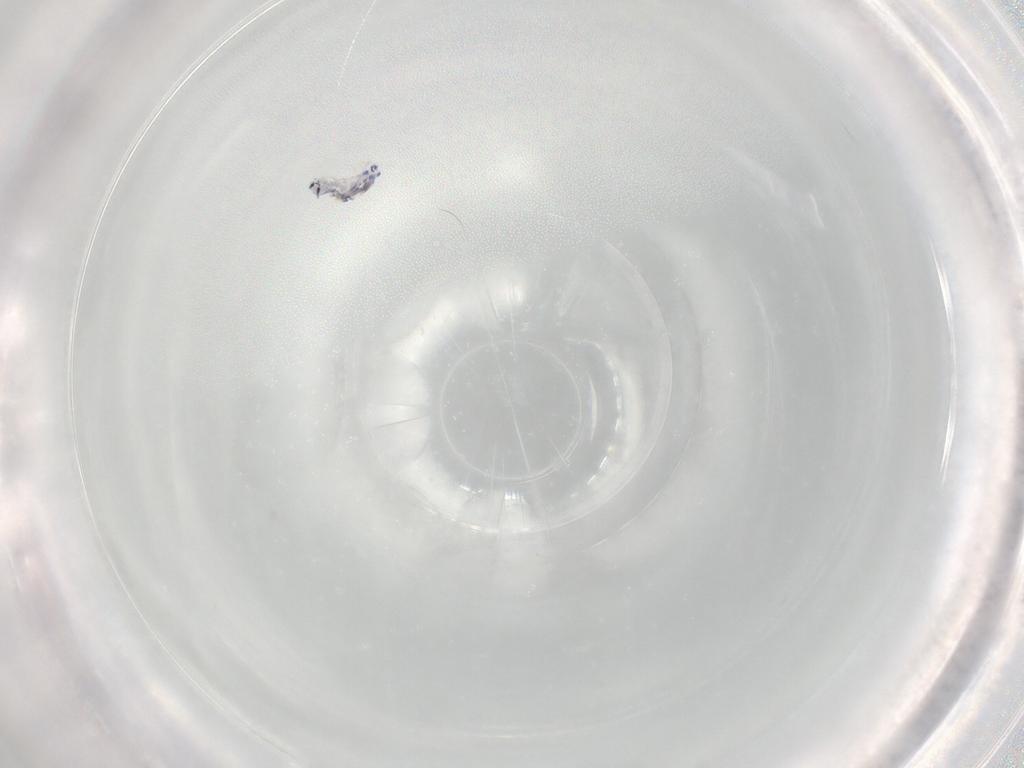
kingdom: Animalia
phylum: Arthropoda
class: Collembola
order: Entomobryomorpha
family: Entomobryidae
